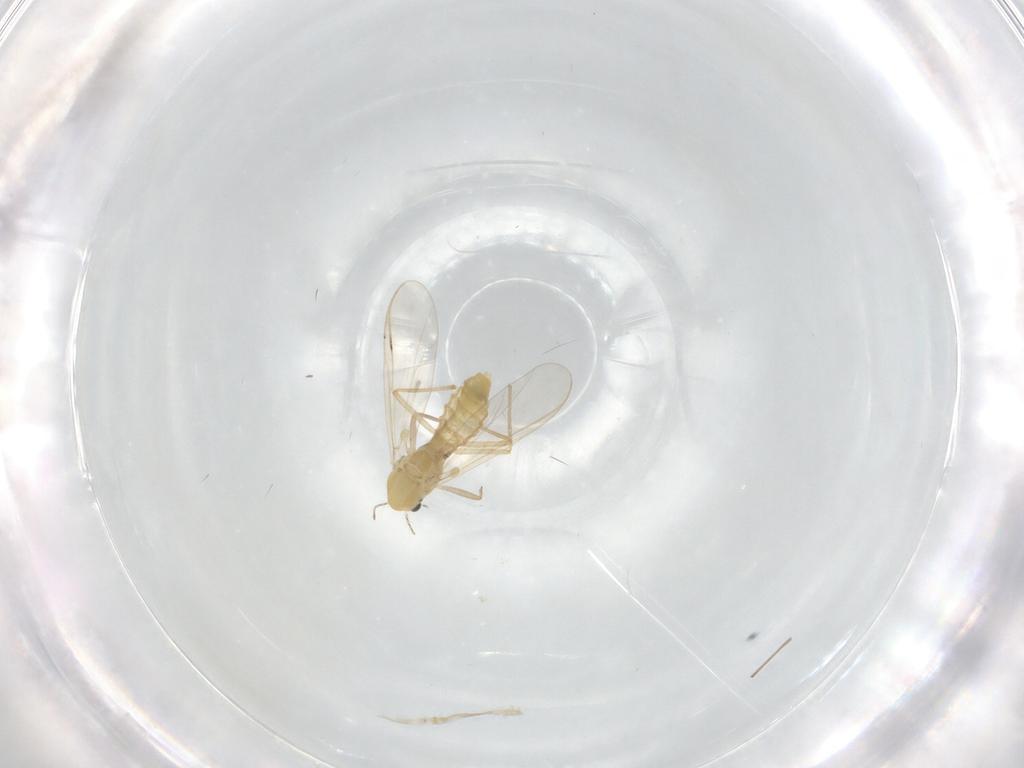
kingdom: Animalia
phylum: Arthropoda
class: Insecta
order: Diptera
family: Chironomidae
